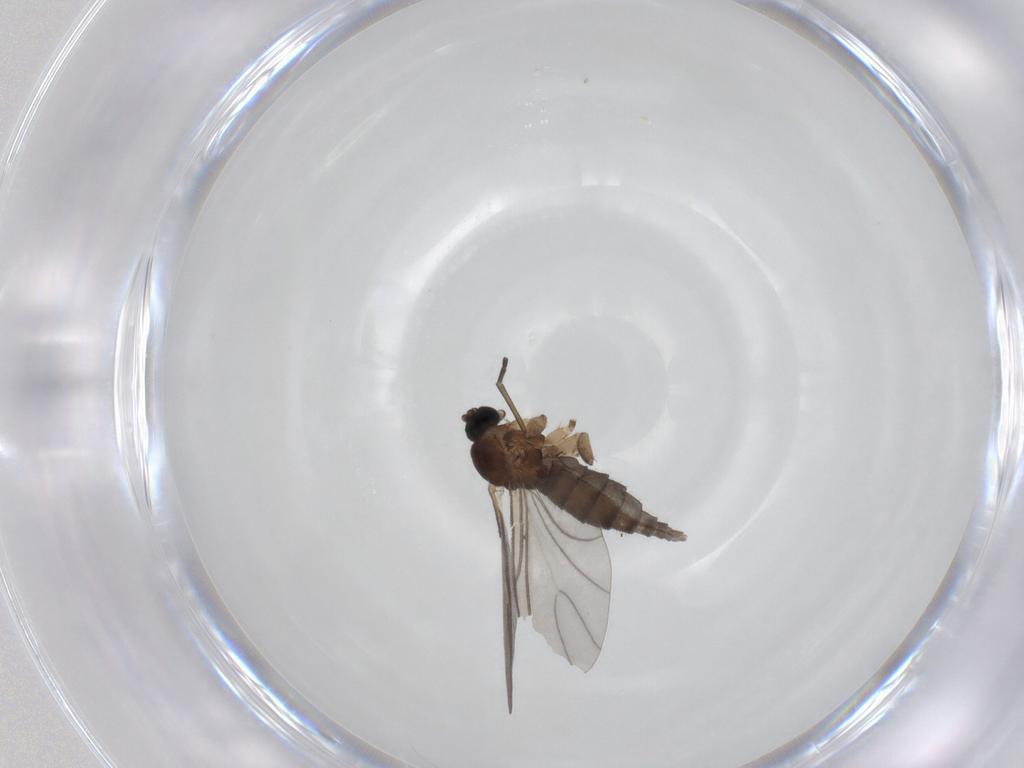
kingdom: Animalia
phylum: Arthropoda
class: Insecta
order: Diptera
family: Sciaridae
